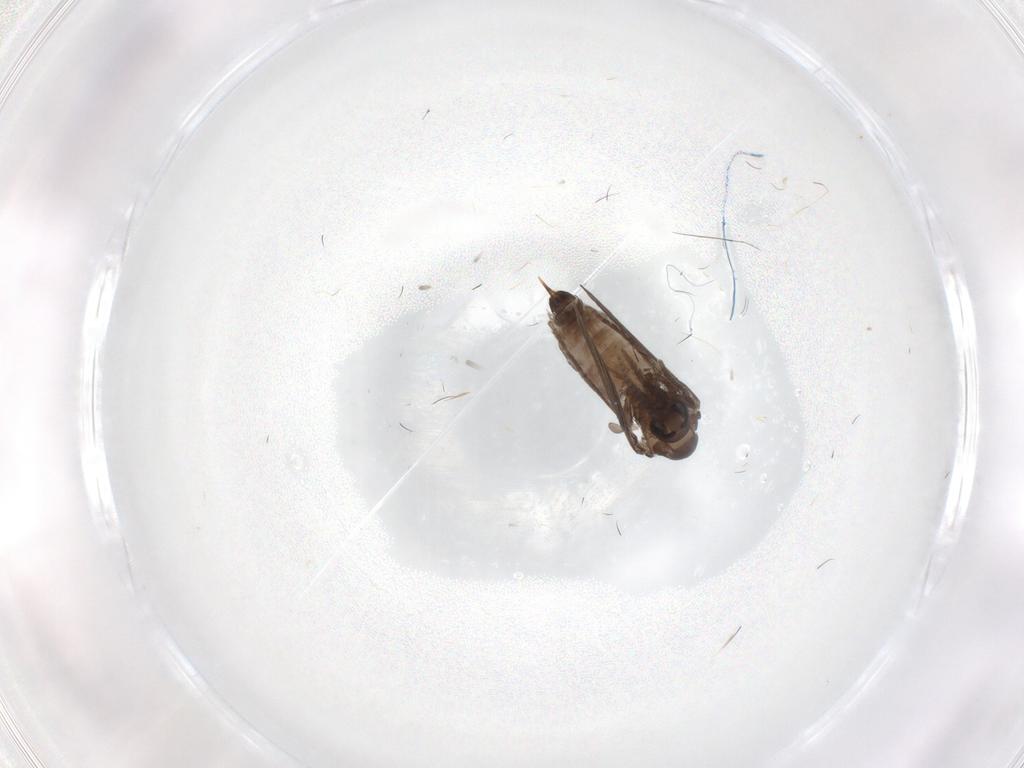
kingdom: Animalia
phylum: Arthropoda
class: Insecta
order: Diptera
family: Psychodidae
